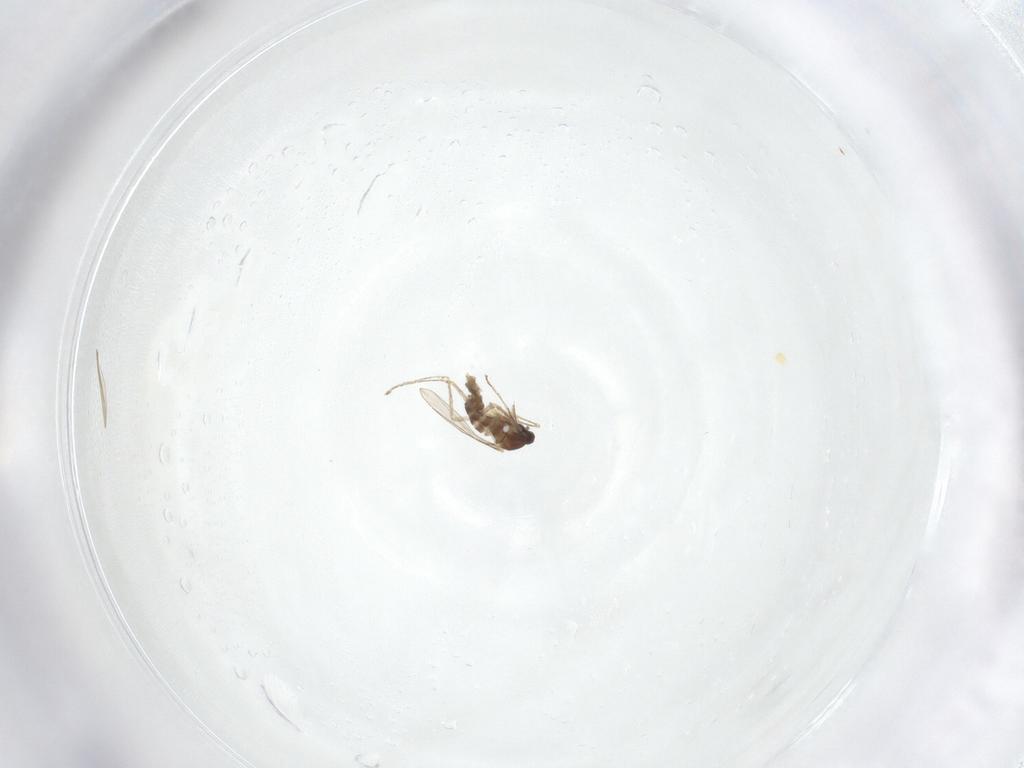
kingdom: Animalia
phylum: Arthropoda
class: Insecta
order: Diptera
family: Cecidomyiidae
